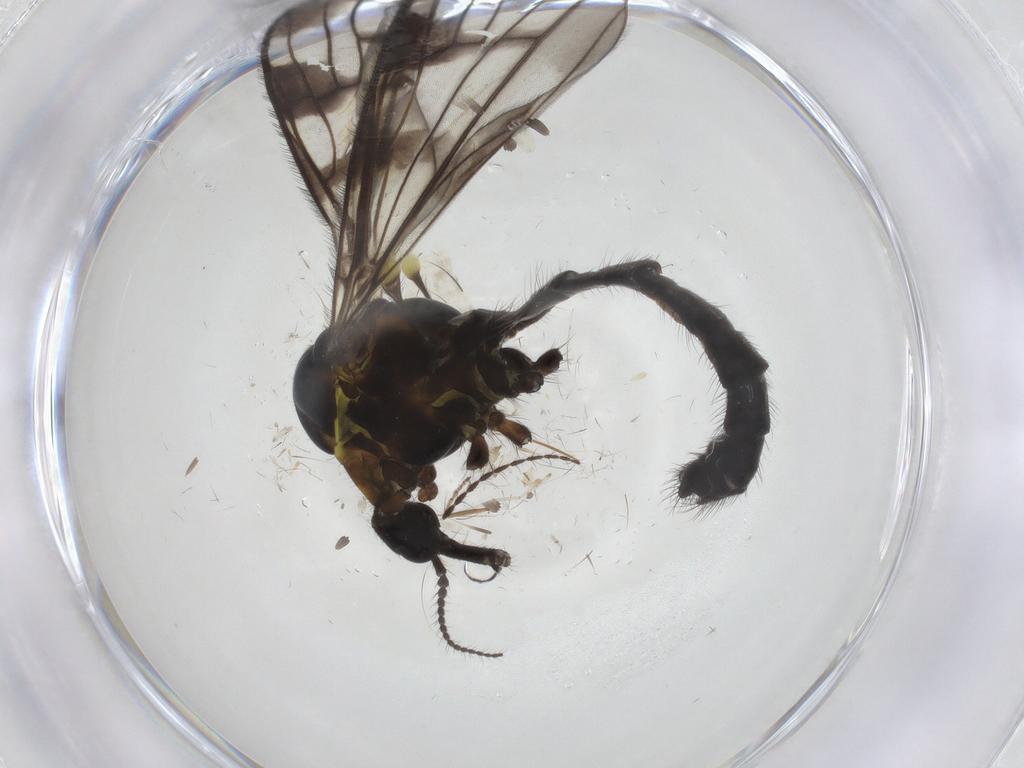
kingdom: Animalia
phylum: Arthropoda
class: Insecta
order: Diptera
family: Limoniidae
